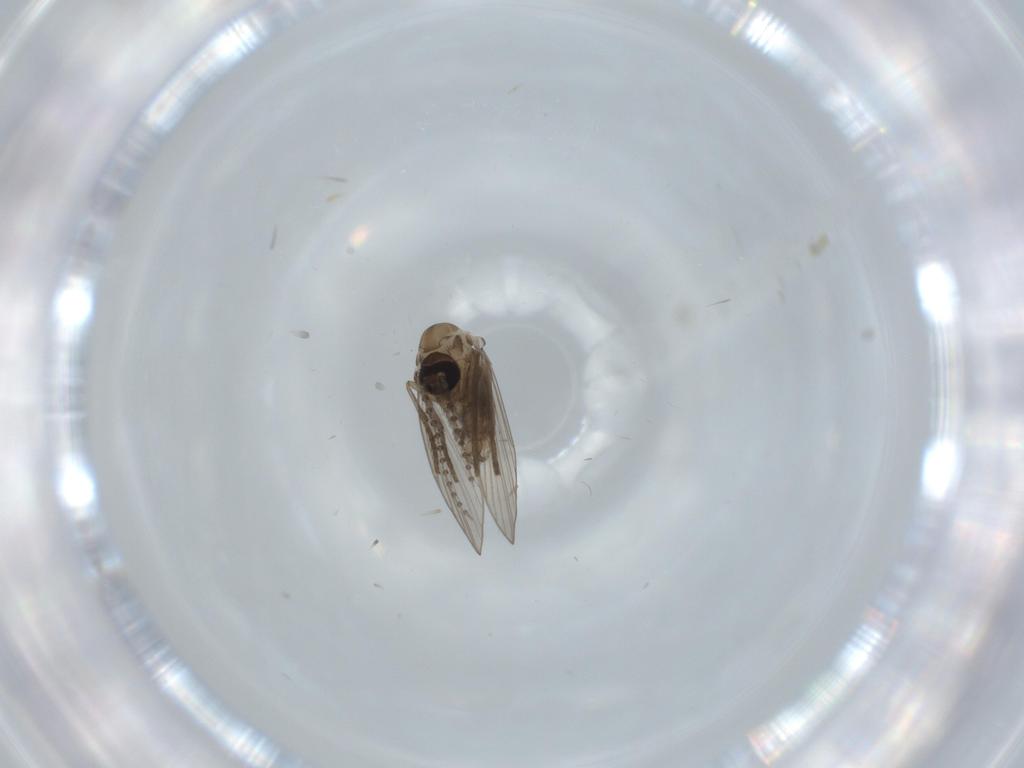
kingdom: Animalia
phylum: Arthropoda
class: Insecta
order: Diptera
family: Psychodidae
